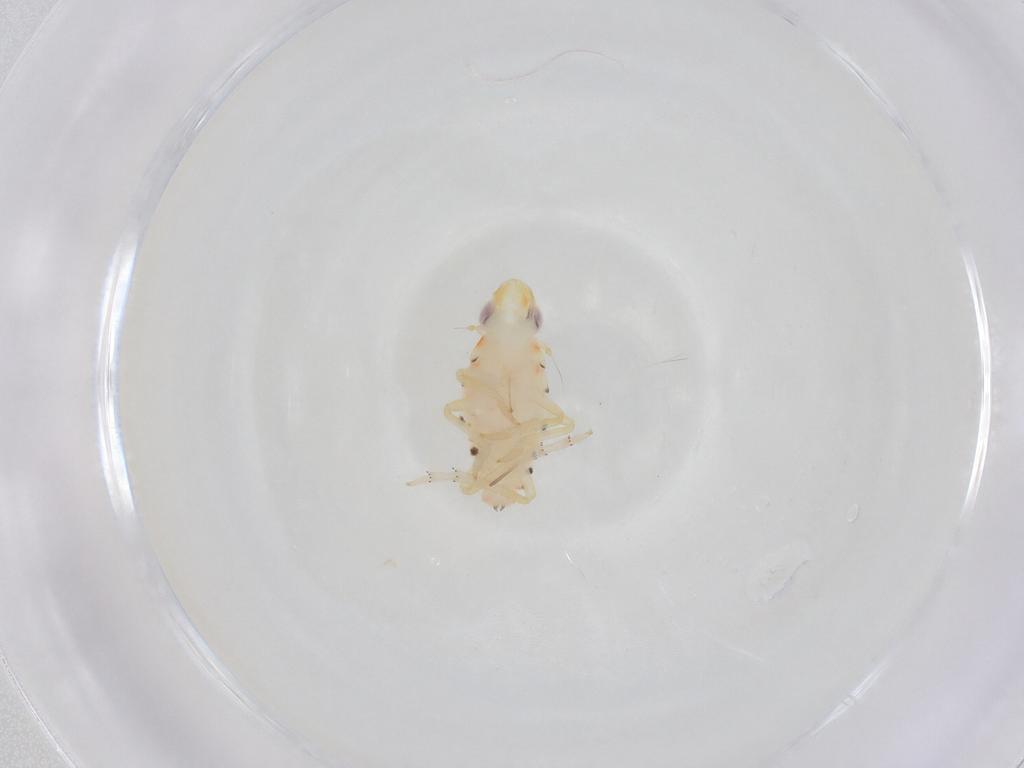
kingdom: Animalia
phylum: Arthropoda
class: Insecta
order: Hemiptera
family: Tropiduchidae
